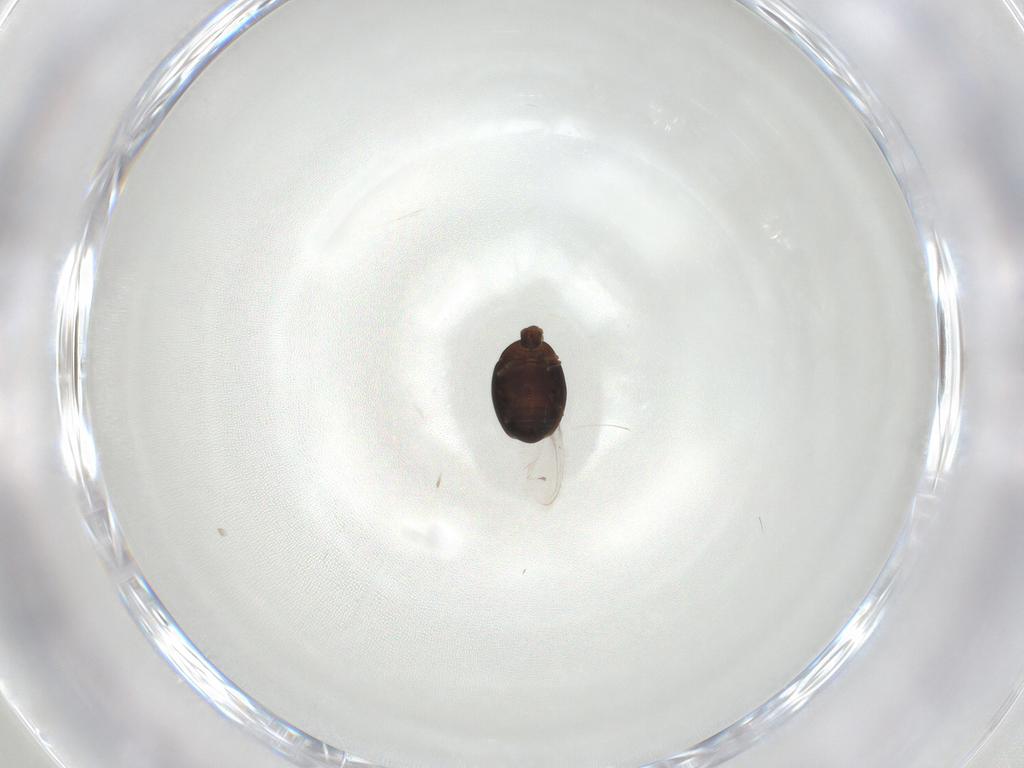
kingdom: Animalia
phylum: Arthropoda
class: Insecta
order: Coleoptera
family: Corylophidae
